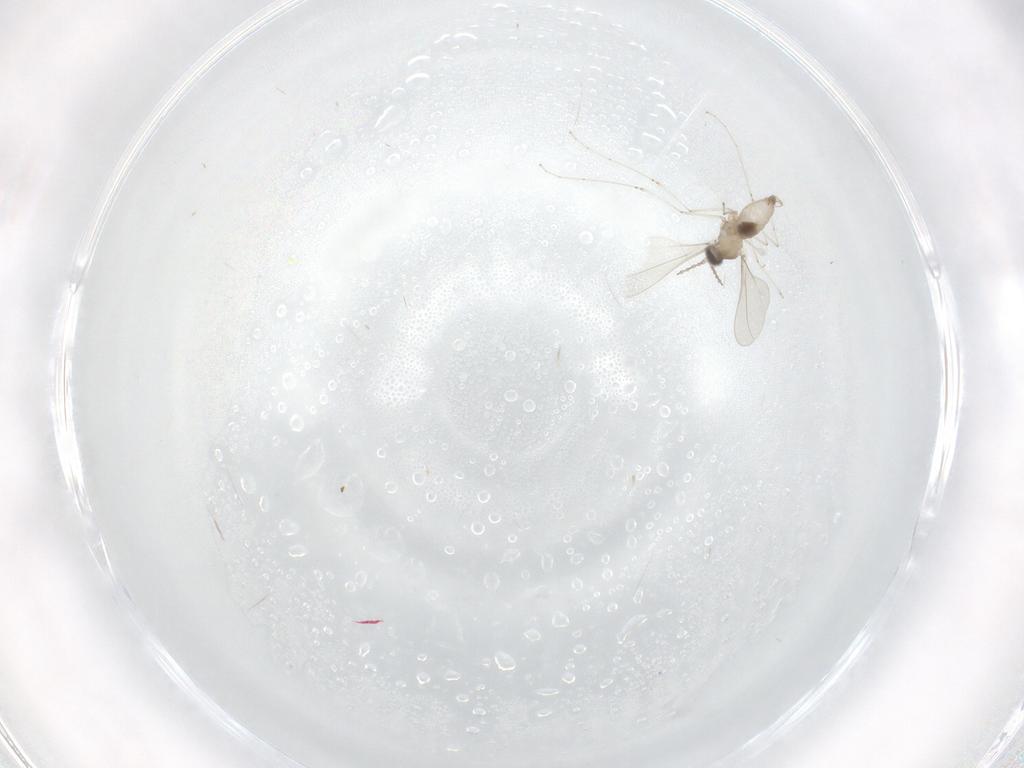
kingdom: Animalia
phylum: Arthropoda
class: Insecta
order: Diptera
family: Cecidomyiidae
